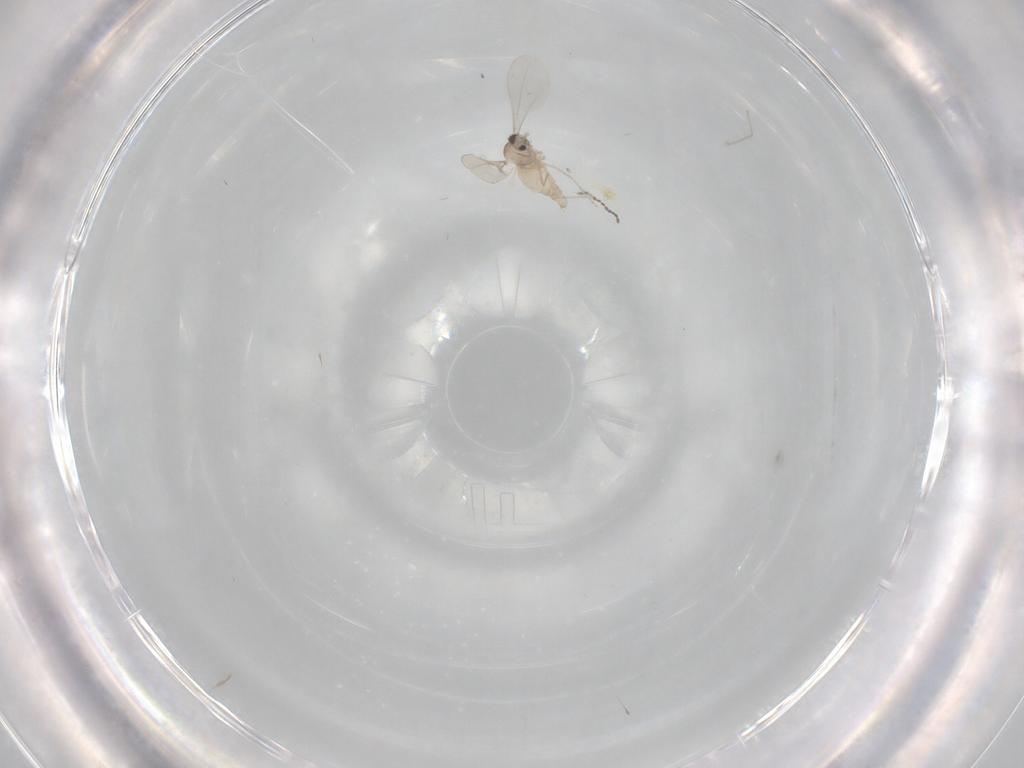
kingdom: Animalia
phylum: Arthropoda
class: Insecta
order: Diptera
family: Cecidomyiidae
